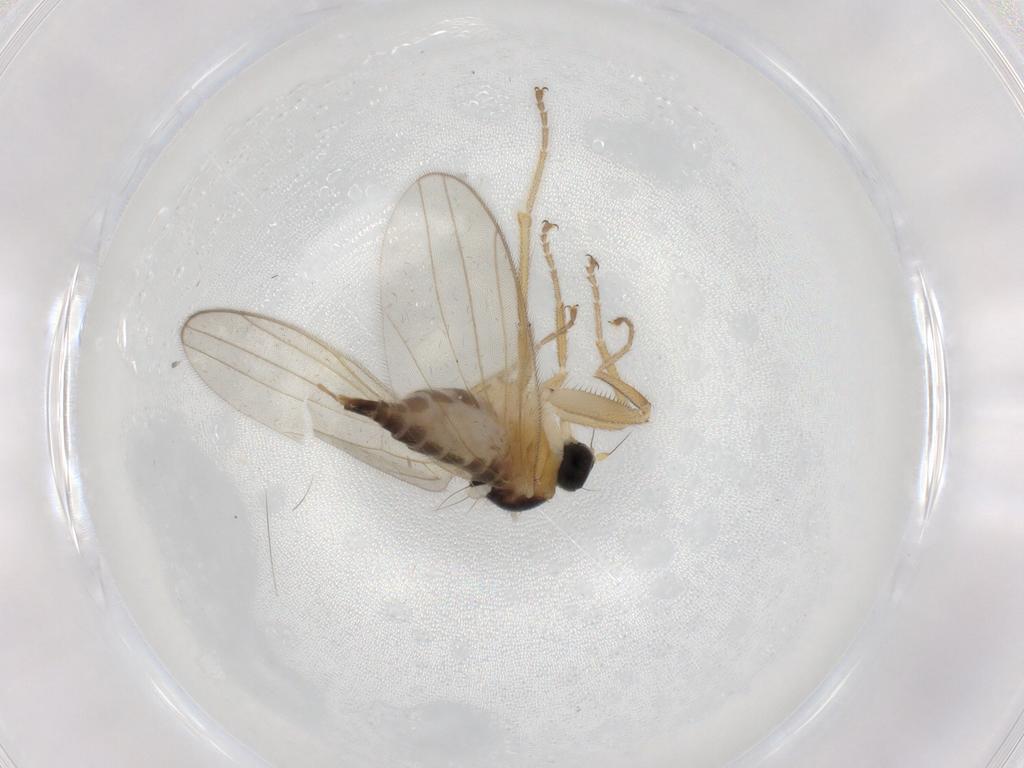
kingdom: Animalia
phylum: Arthropoda
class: Insecta
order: Diptera
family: Hybotidae
